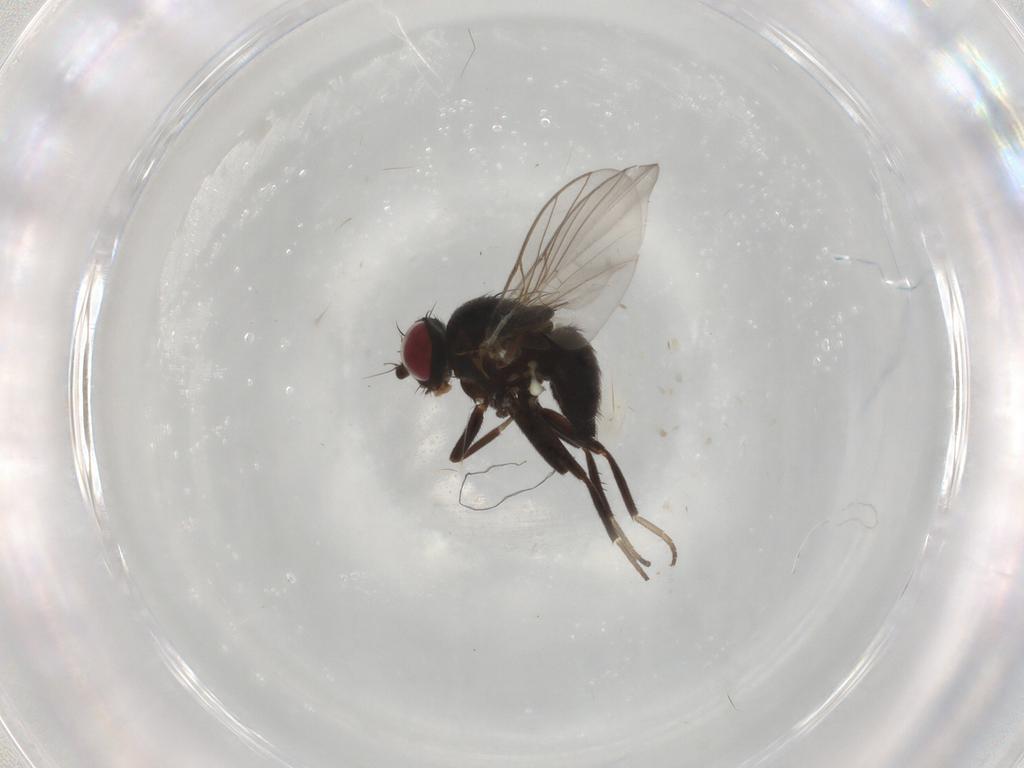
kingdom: Animalia
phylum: Arthropoda
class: Insecta
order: Diptera
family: Agromyzidae
